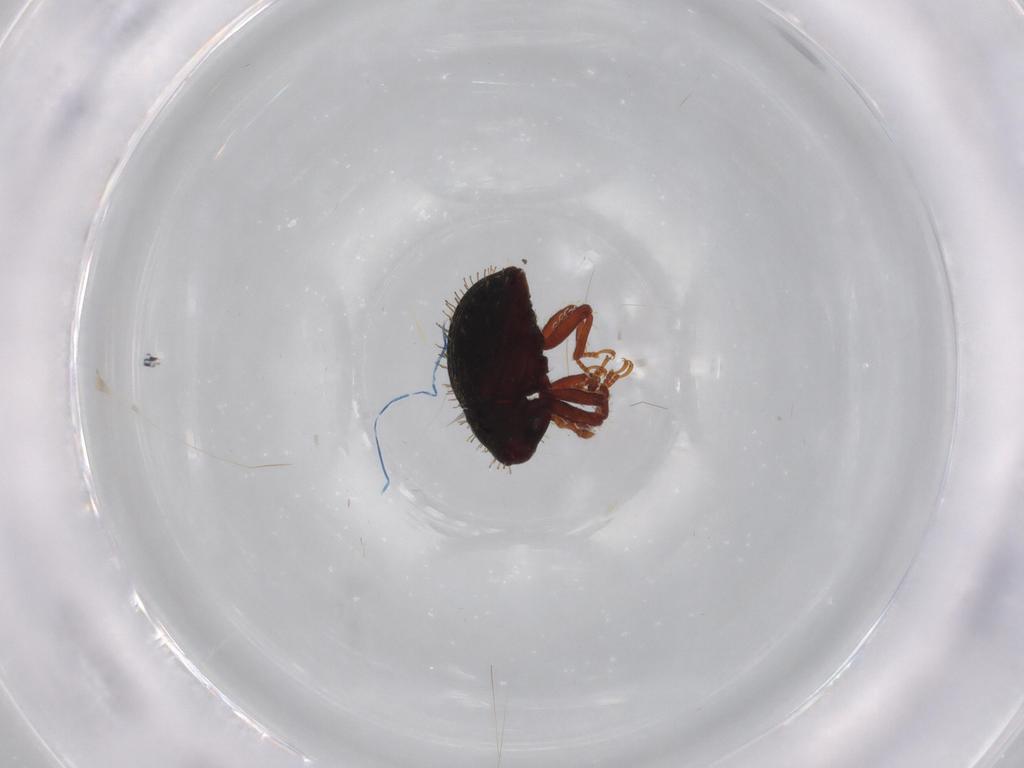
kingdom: Animalia
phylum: Arthropoda
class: Insecta
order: Coleoptera
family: Curculionidae
